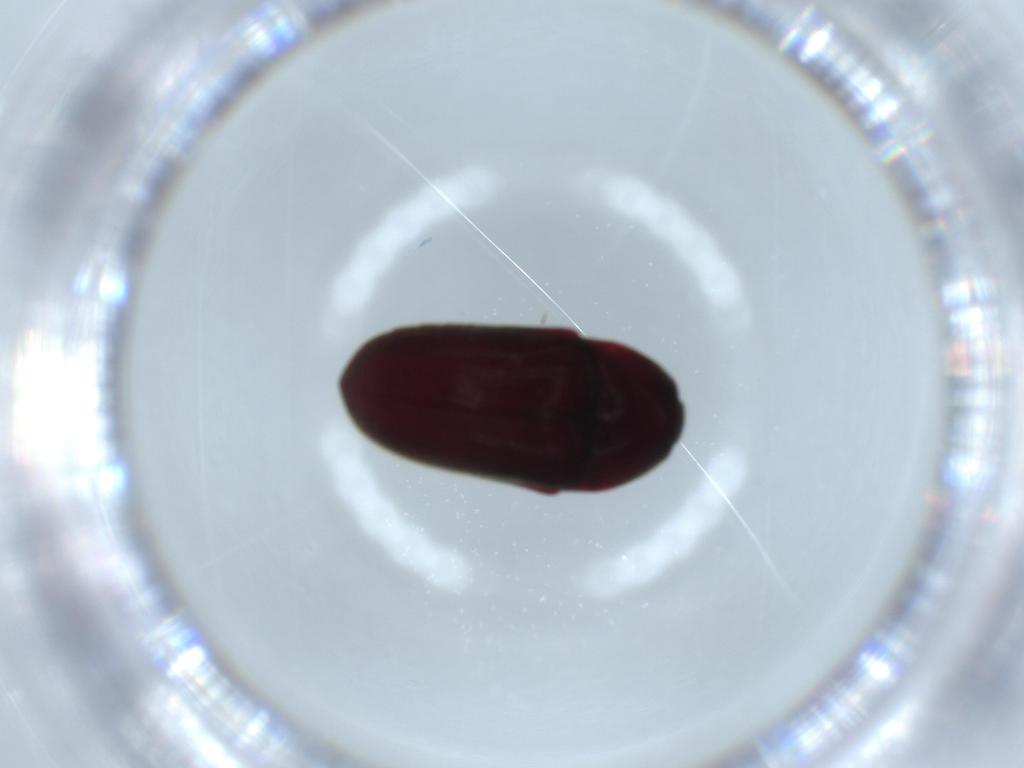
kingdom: Animalia
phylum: Arthropoda
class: Insecta
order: Coleoptera
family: Throscidae
